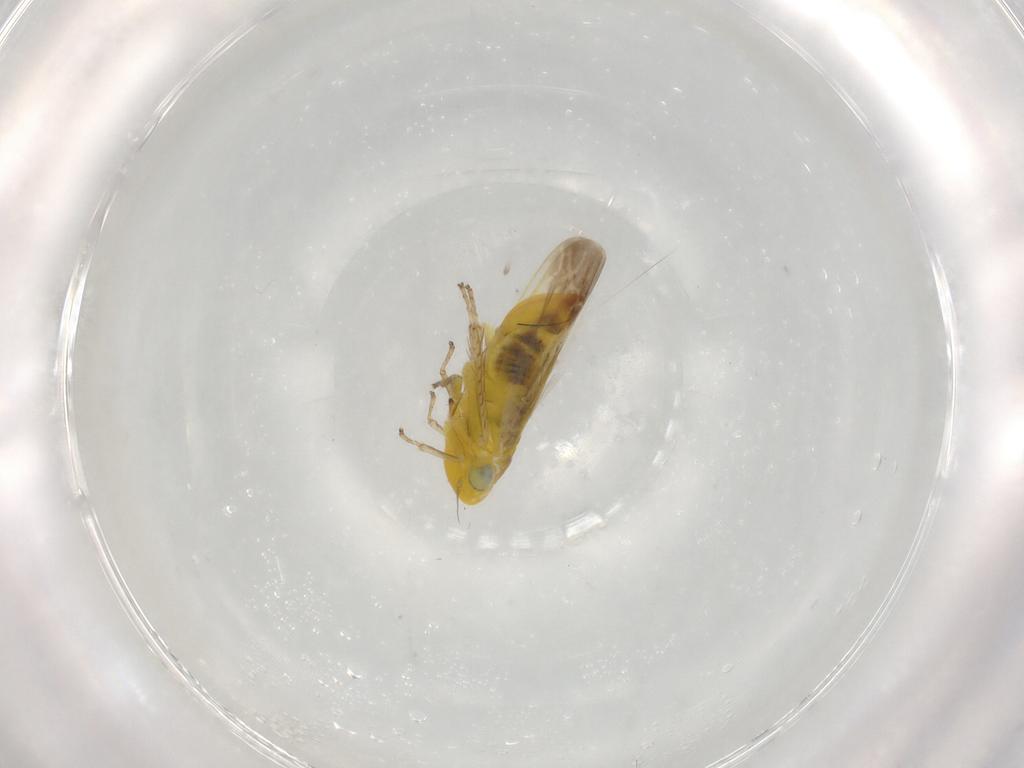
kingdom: Animalia
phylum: Arthropoda
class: Insecta
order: Hemiptera
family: Cicadellidae
